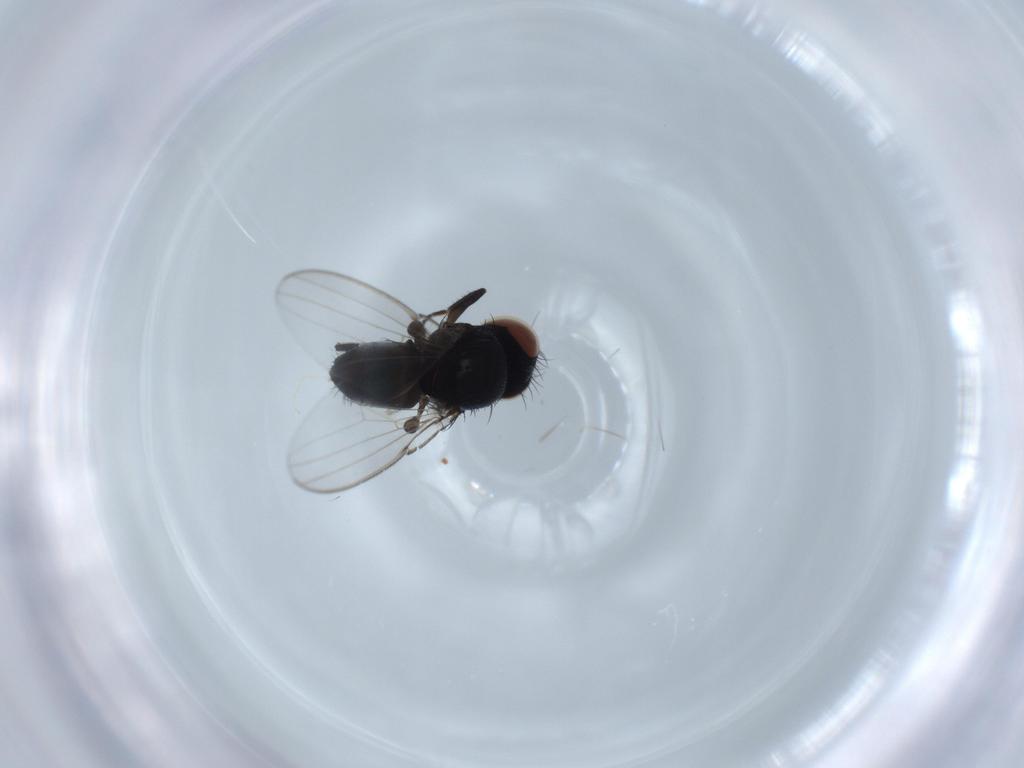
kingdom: Animalia
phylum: Arthropoda
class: Insecta
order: Diptera
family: Milichiidae
